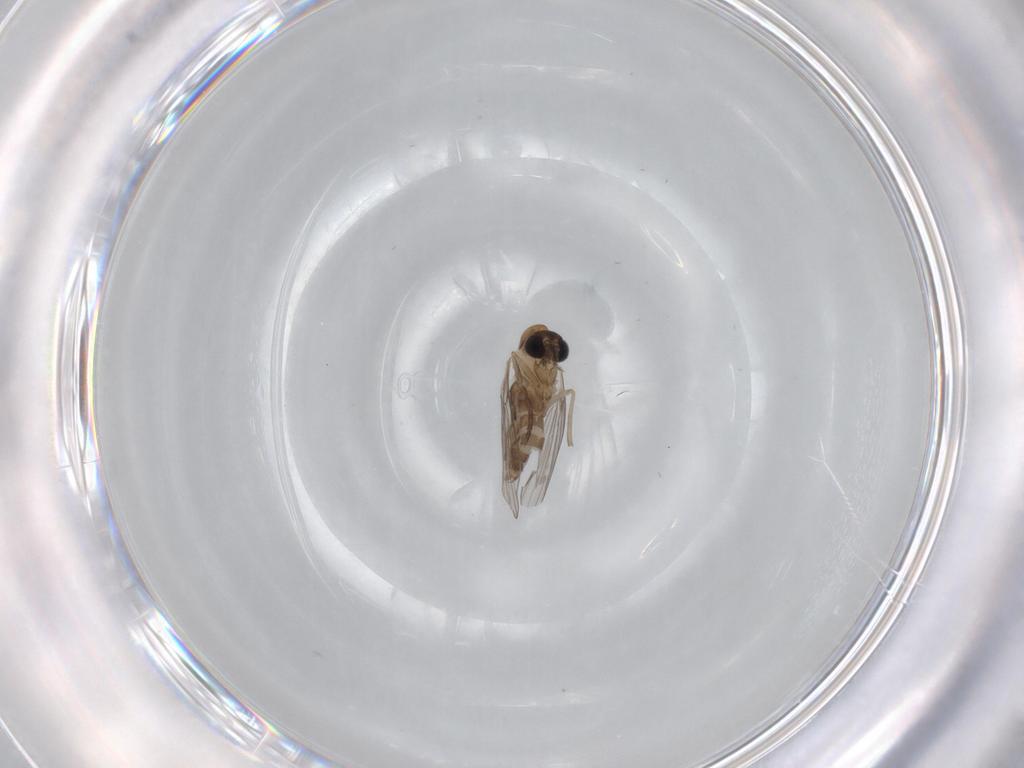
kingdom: Animalia
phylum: Arthropoda
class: Insecta
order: Diptera
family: Psychodidae
